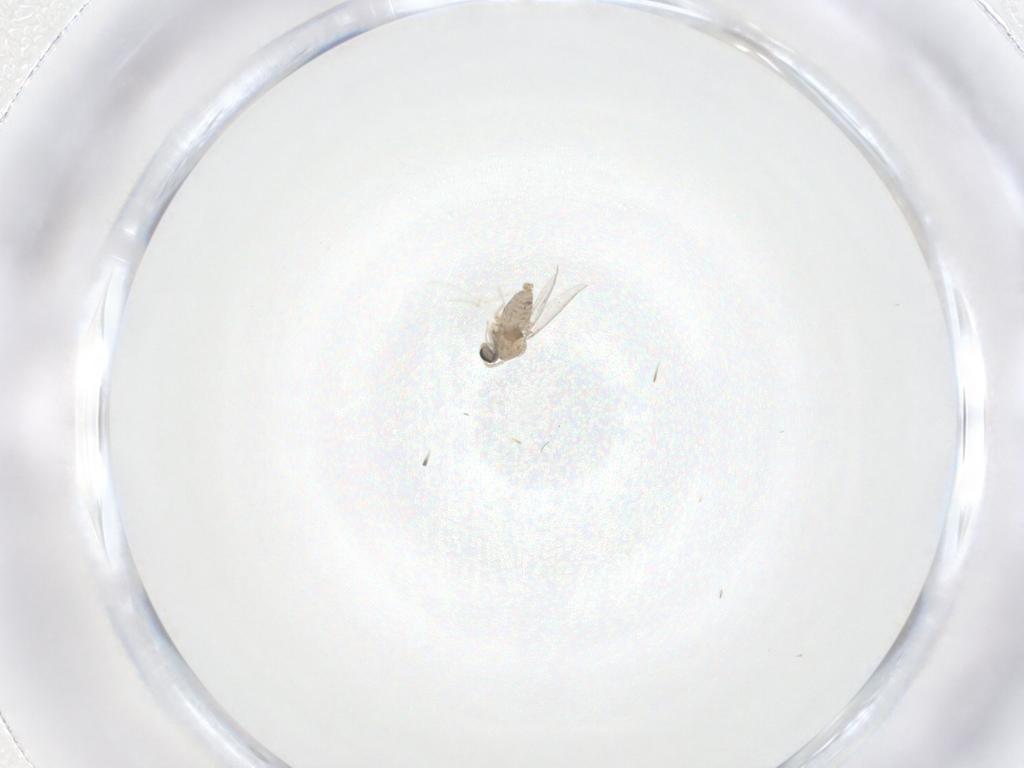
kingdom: Animalia
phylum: Arthropoda
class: Insecta
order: Diptera
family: Cecidomyiidae
